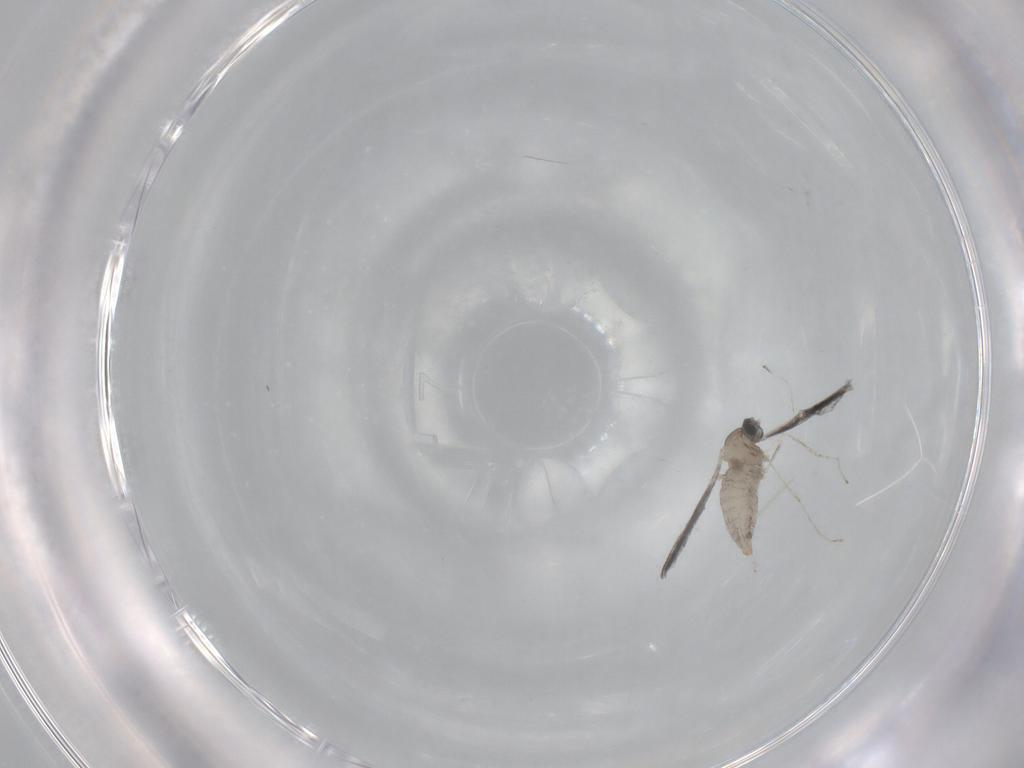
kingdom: Animalia
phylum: Arthropoda
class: Insecta
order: Diptera
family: Cecidomyiidae
